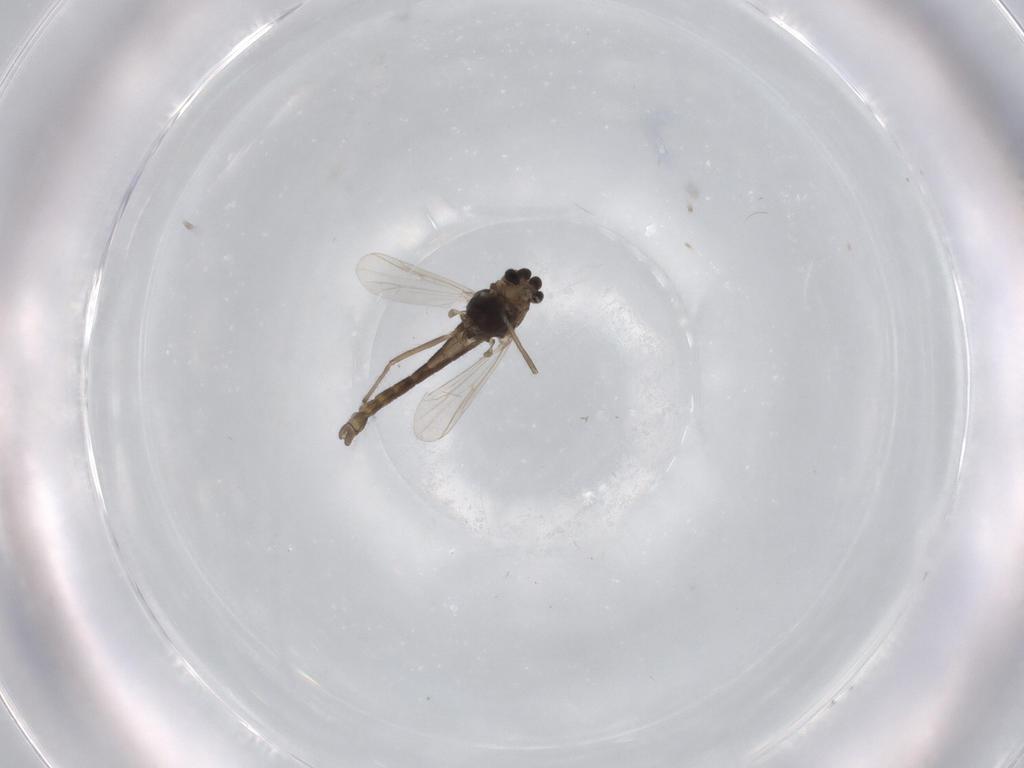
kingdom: Animalia
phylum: Arthropoda
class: Insecta
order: Diptera
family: Chironomidae
